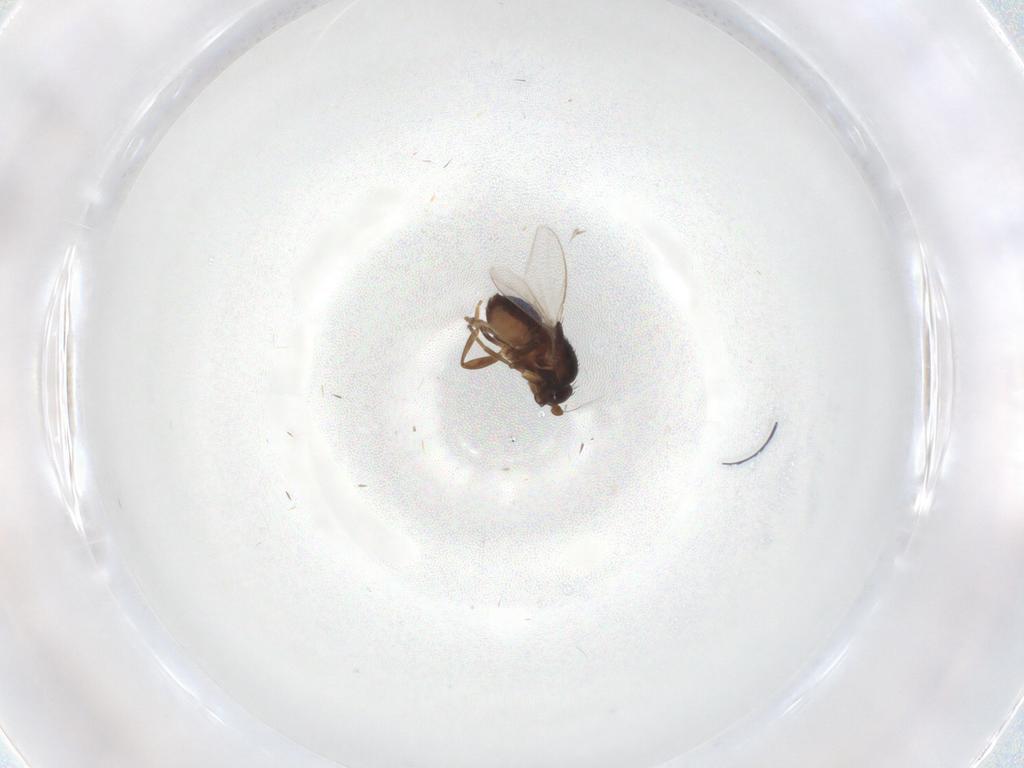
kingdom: Animalia
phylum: Arthropoda
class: Insecta
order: Diptera
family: Sphaeroceridae
